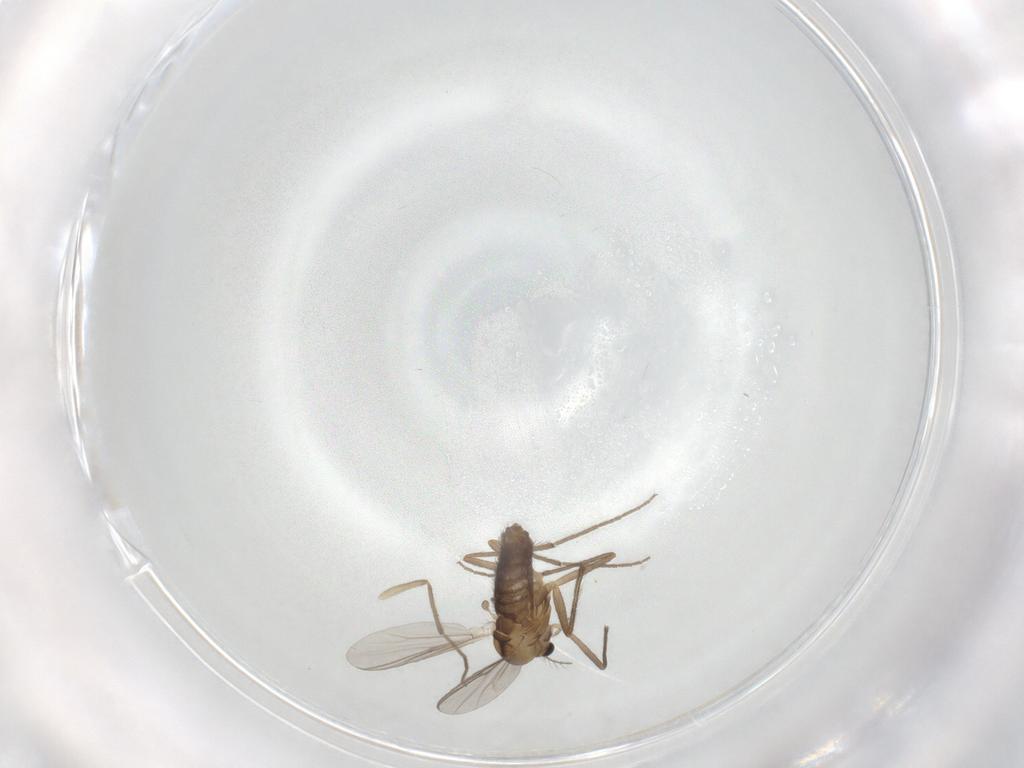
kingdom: Animalia
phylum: Arthropoda
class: Insecta
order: Diptera
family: Chironomidae
